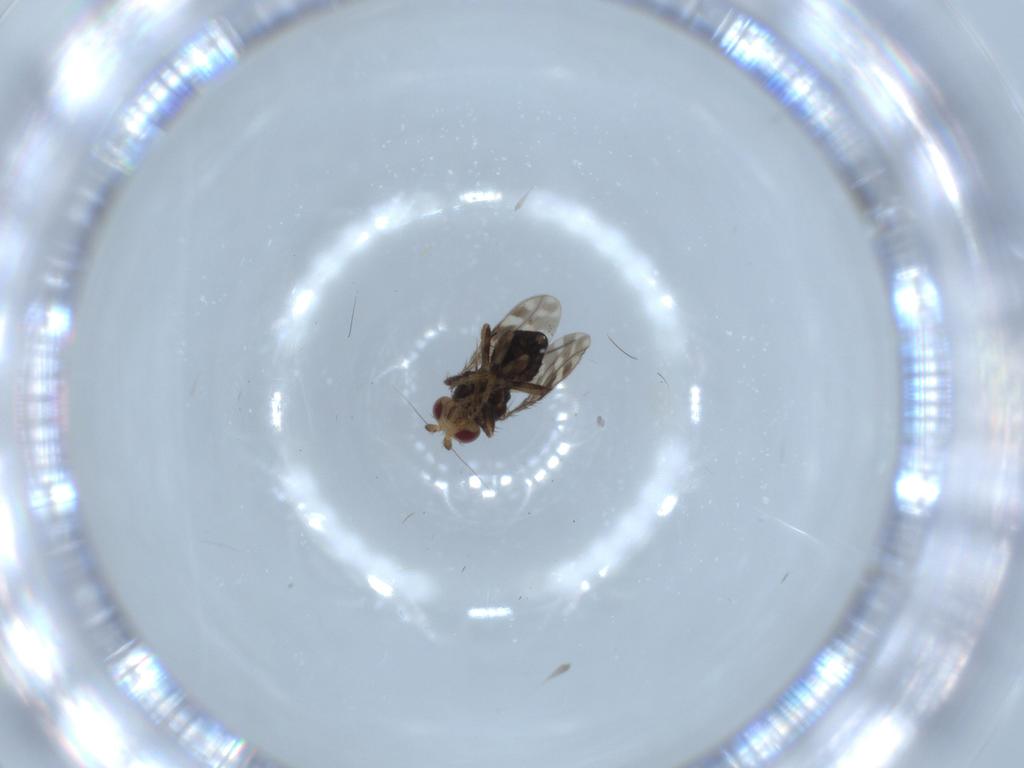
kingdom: Animalia
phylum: Arthropoda
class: Insecta
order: Diptera
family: Sphaeroceridae
